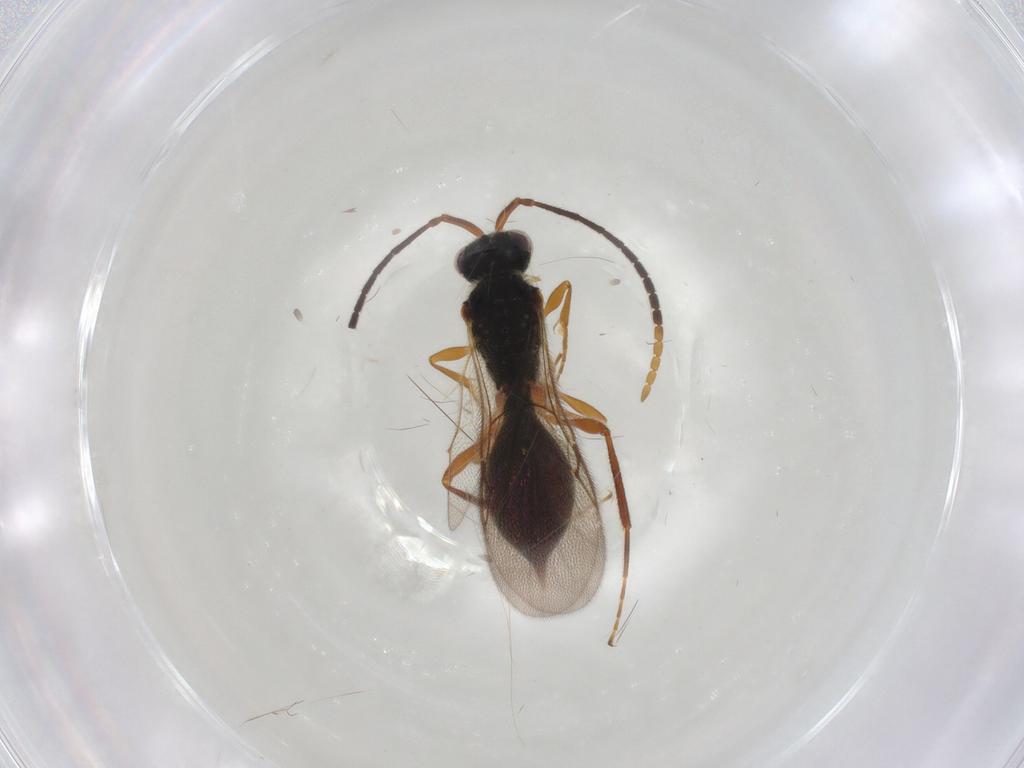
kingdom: Animalia
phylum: Arthropoda
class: Insecta
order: Hymenoptera
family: Diapriidae
